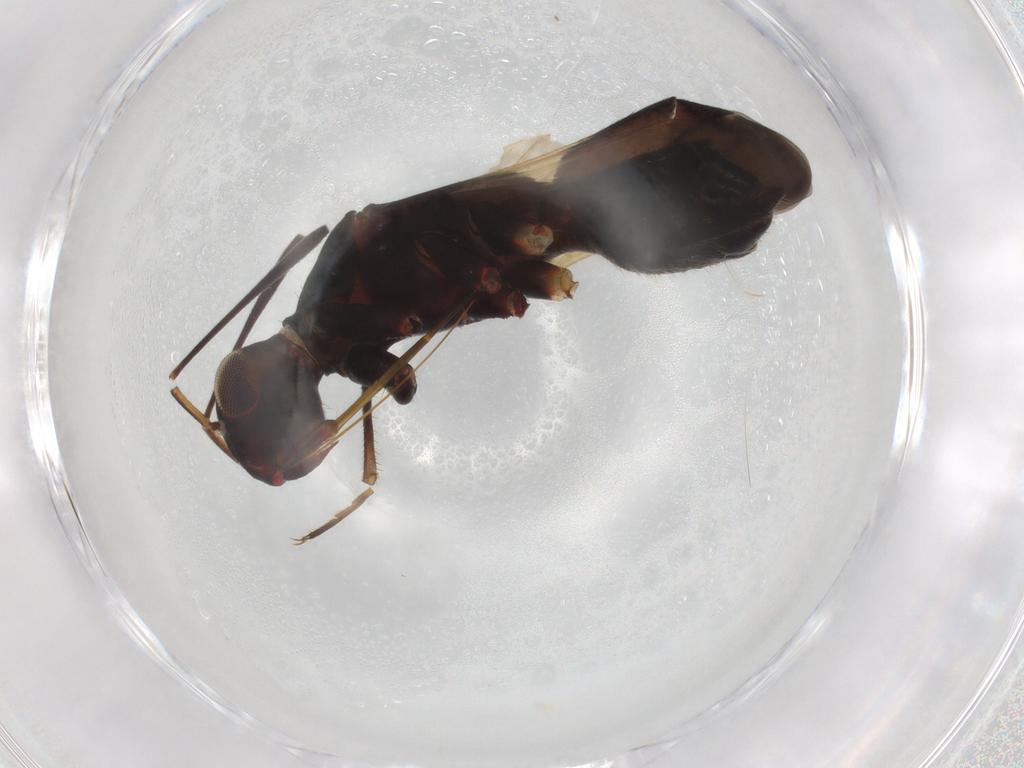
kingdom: Animalia
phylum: Arthropoda
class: Insecta
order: Hemiptera
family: Miridae
